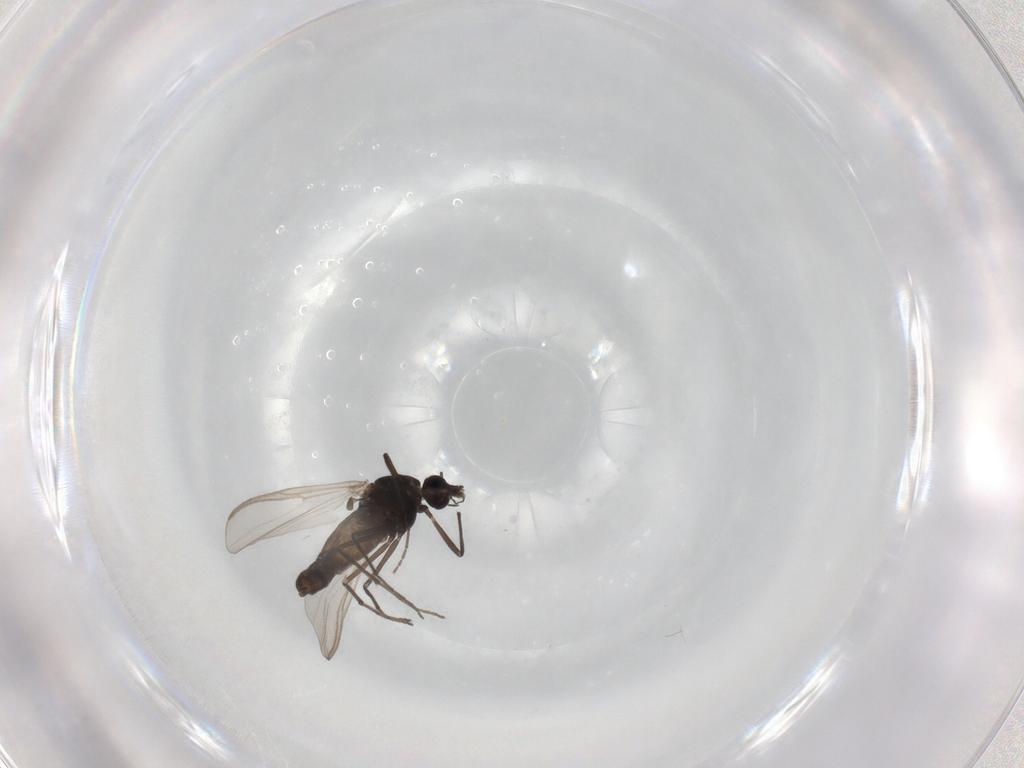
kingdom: Animalia
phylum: Arthropoda
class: Insecta
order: Diptera
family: Chironomidae
